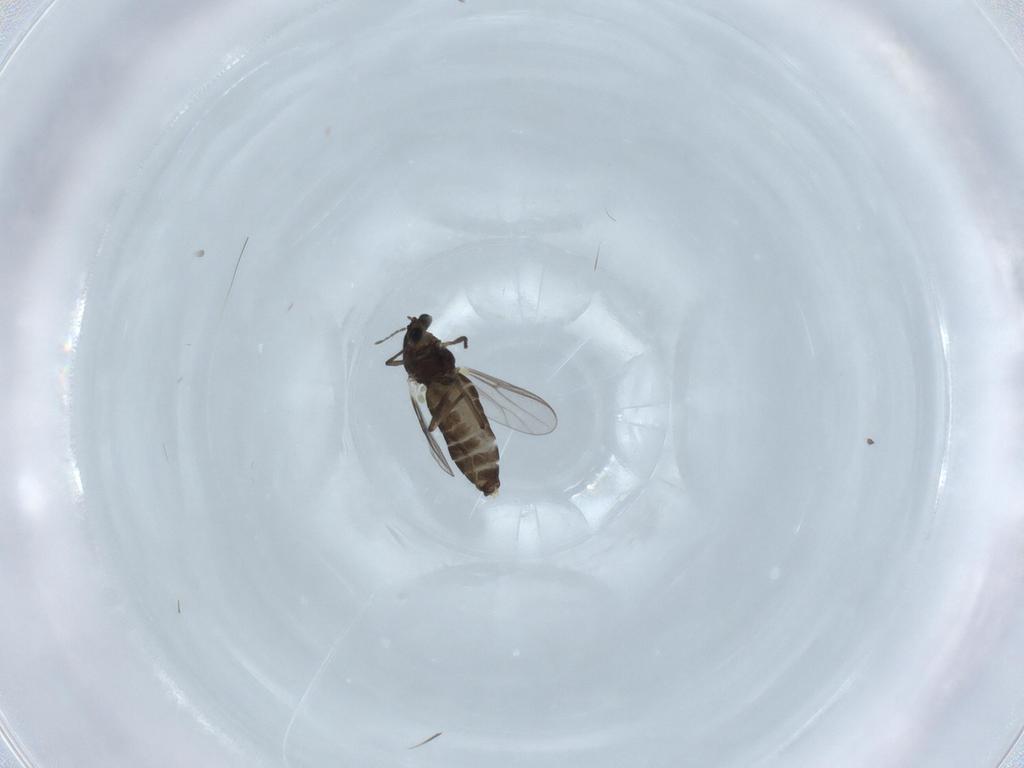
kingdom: Animalia
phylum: Arthropoda
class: Insecta
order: Diptera
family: Chironomidae
